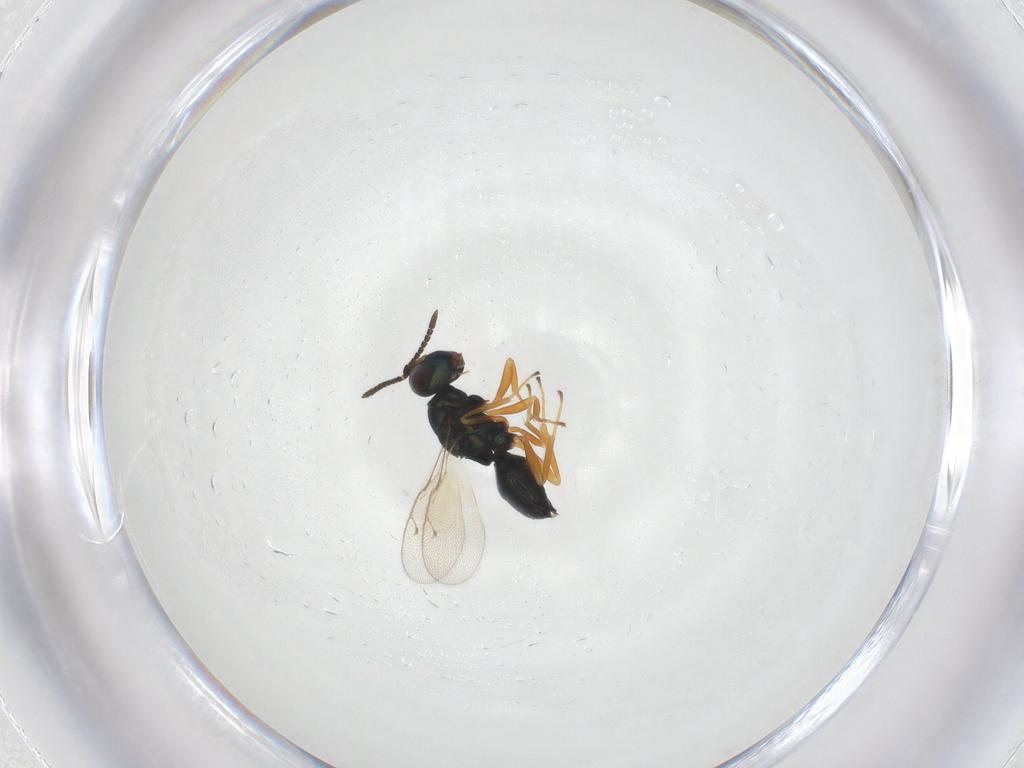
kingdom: Animalia
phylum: Arthropoda
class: Insecta
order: Hymenoptera
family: Pteromalidae
